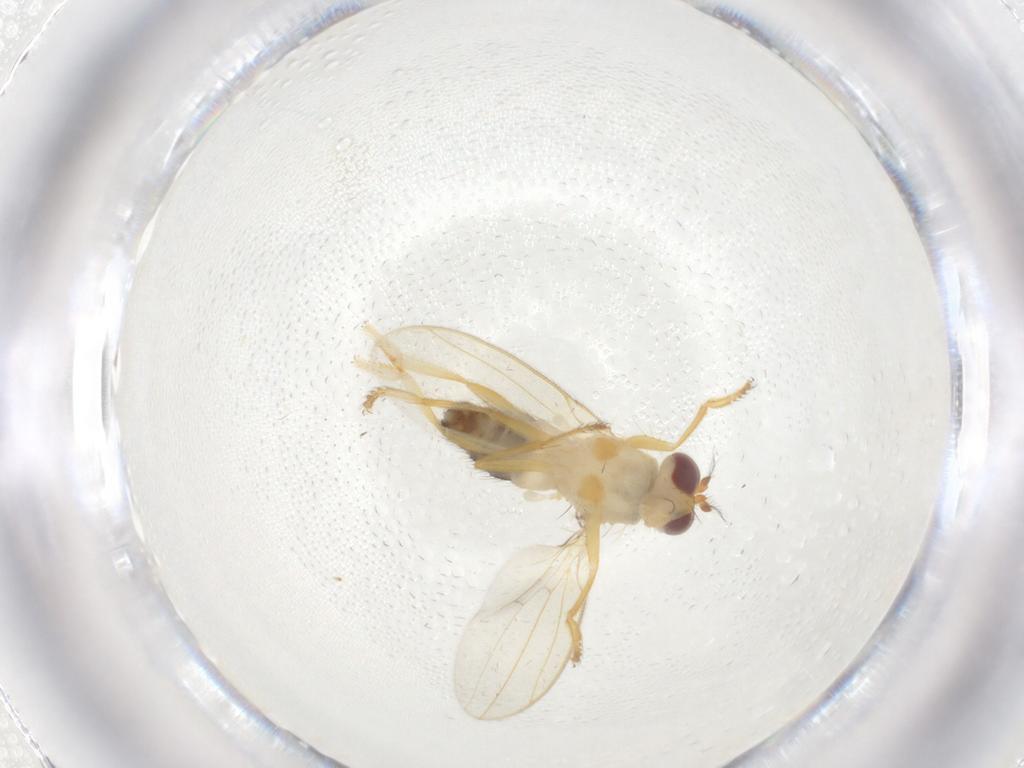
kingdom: Animalia
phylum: Arthropoda
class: Insecta
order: Diptera
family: Periscelididae
